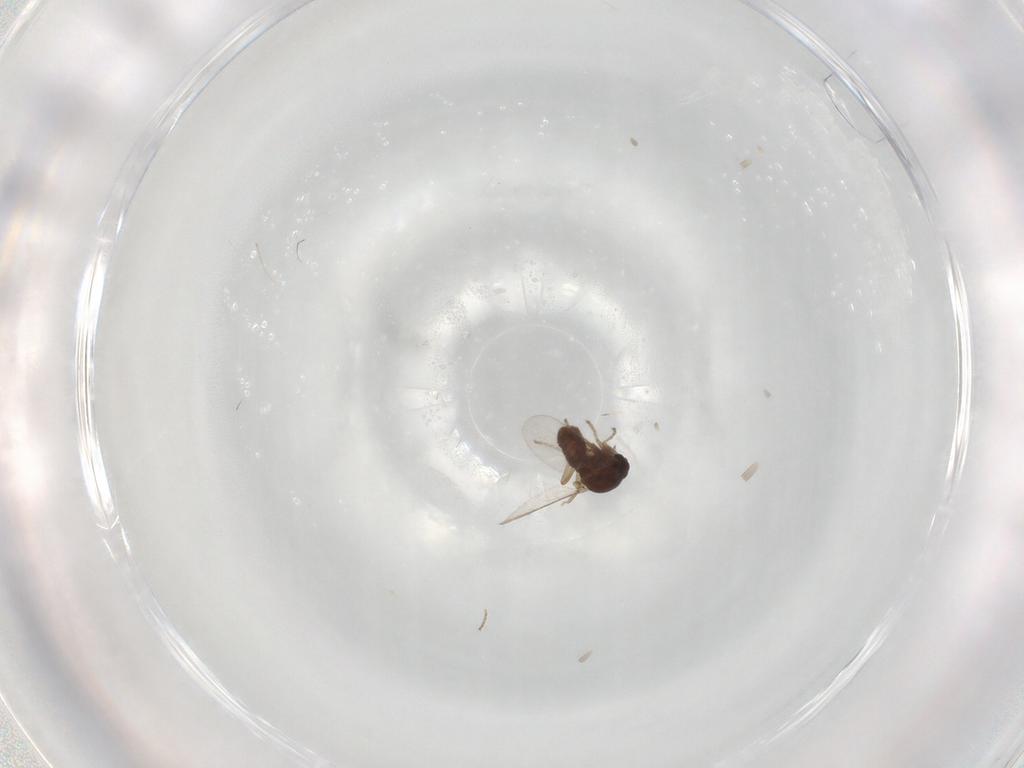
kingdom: Animalia
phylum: Arthropoda
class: Insecta
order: Diptera
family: Ceratopogonidae
